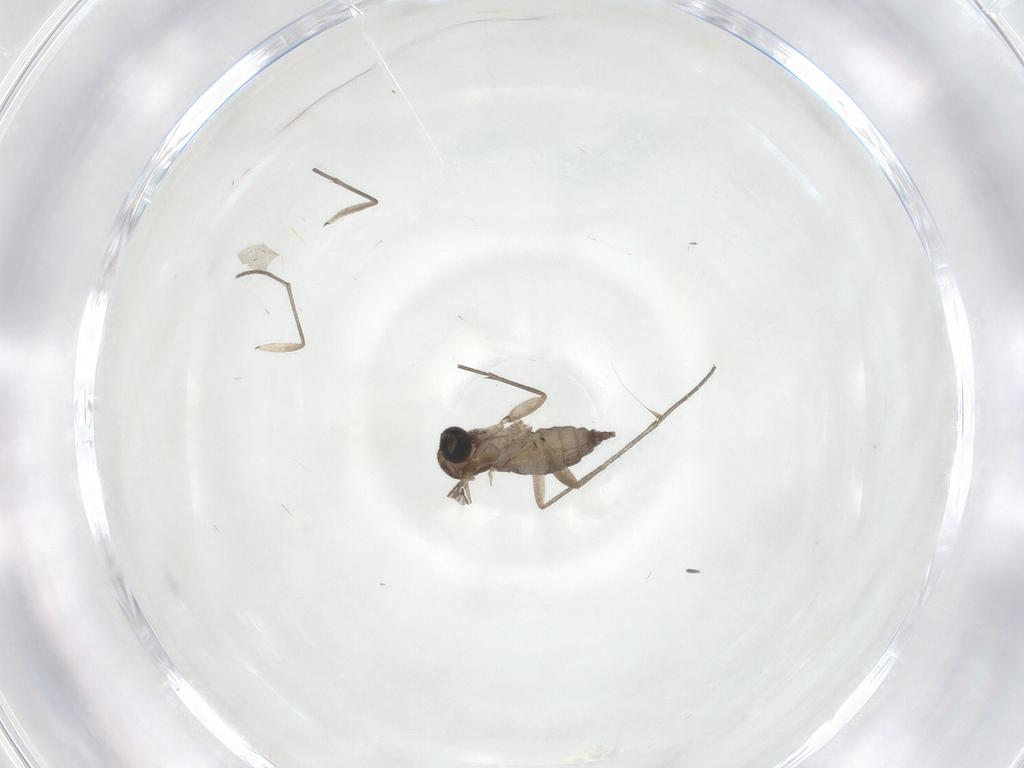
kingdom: Animalia
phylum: Arthropoda
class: Insecta
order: Diptera
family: Sciaridae
